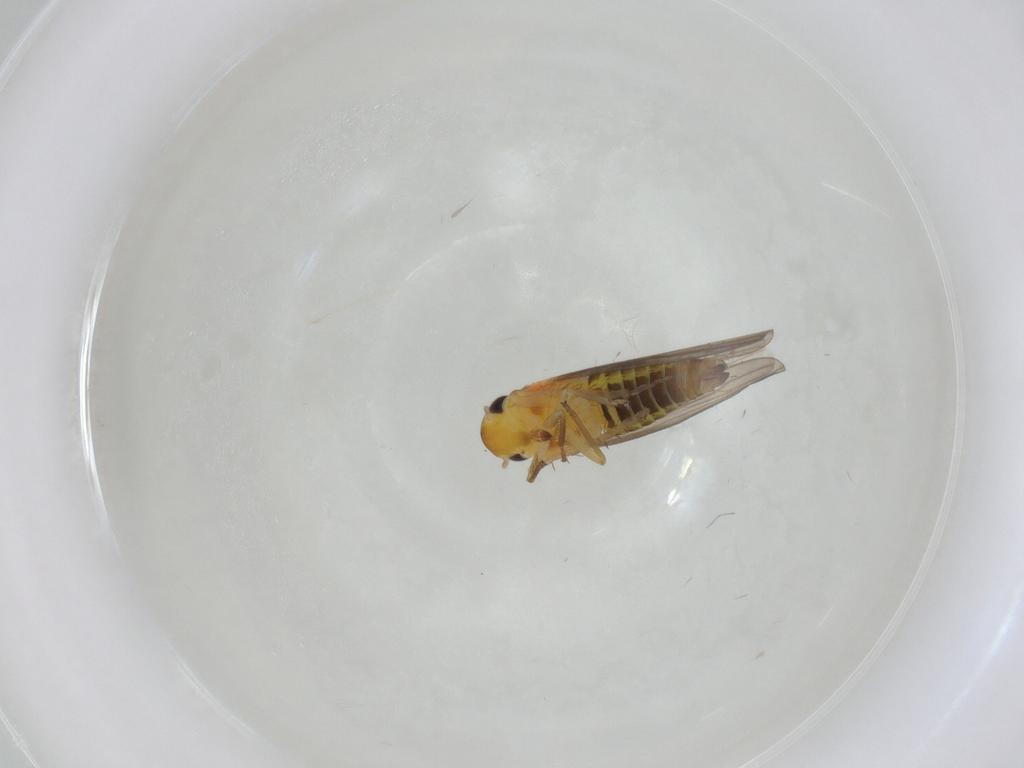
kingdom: Animalia
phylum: Arthropoda
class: Insecta
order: Hemiptera
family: Cicadellidae
